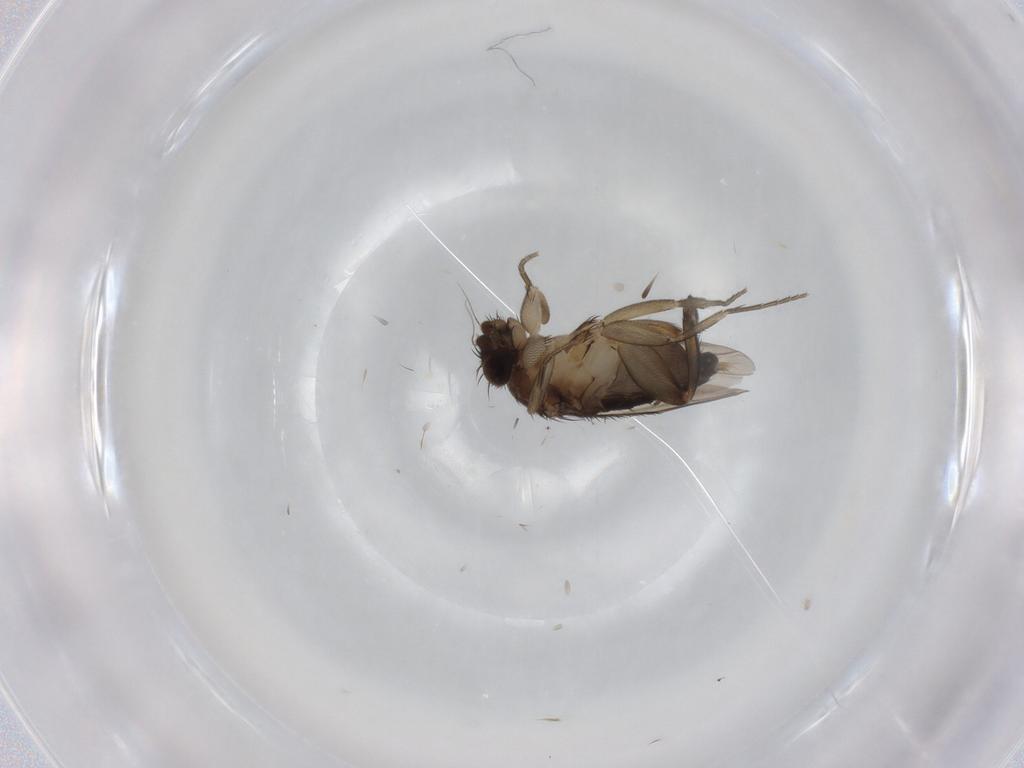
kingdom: Animalia
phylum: Arthropoda
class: Insecta
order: Diptera
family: Phoridae
